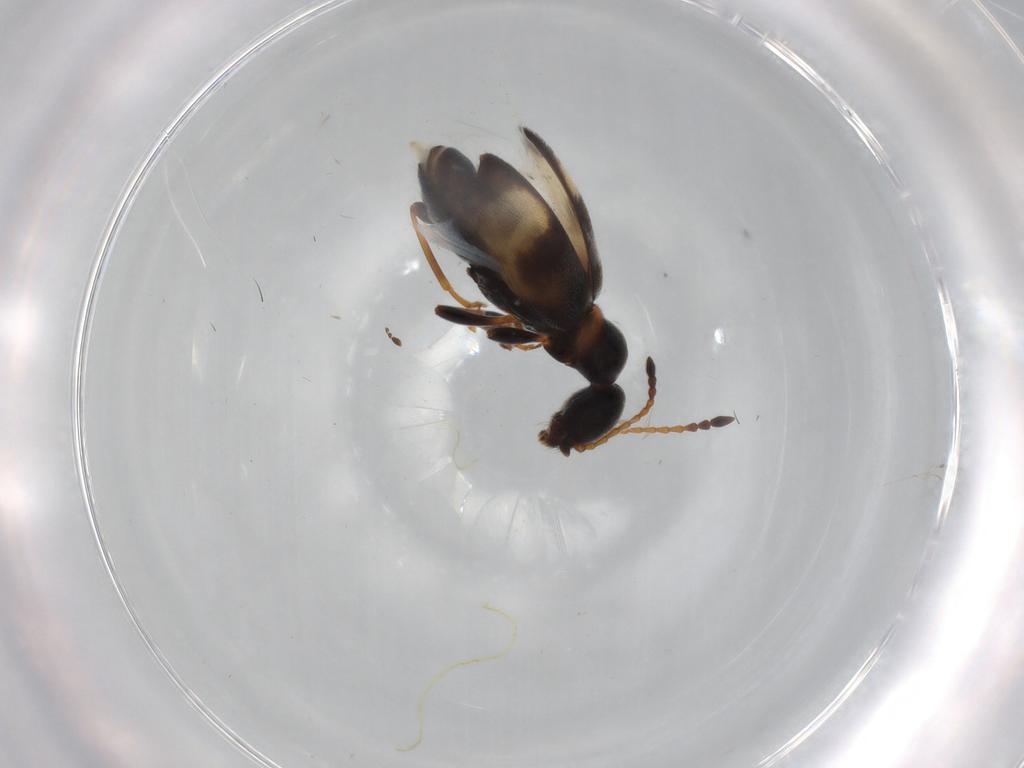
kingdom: Animalia
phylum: Arthropoda
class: Insecta
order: Coleoptera
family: Anthicidae
